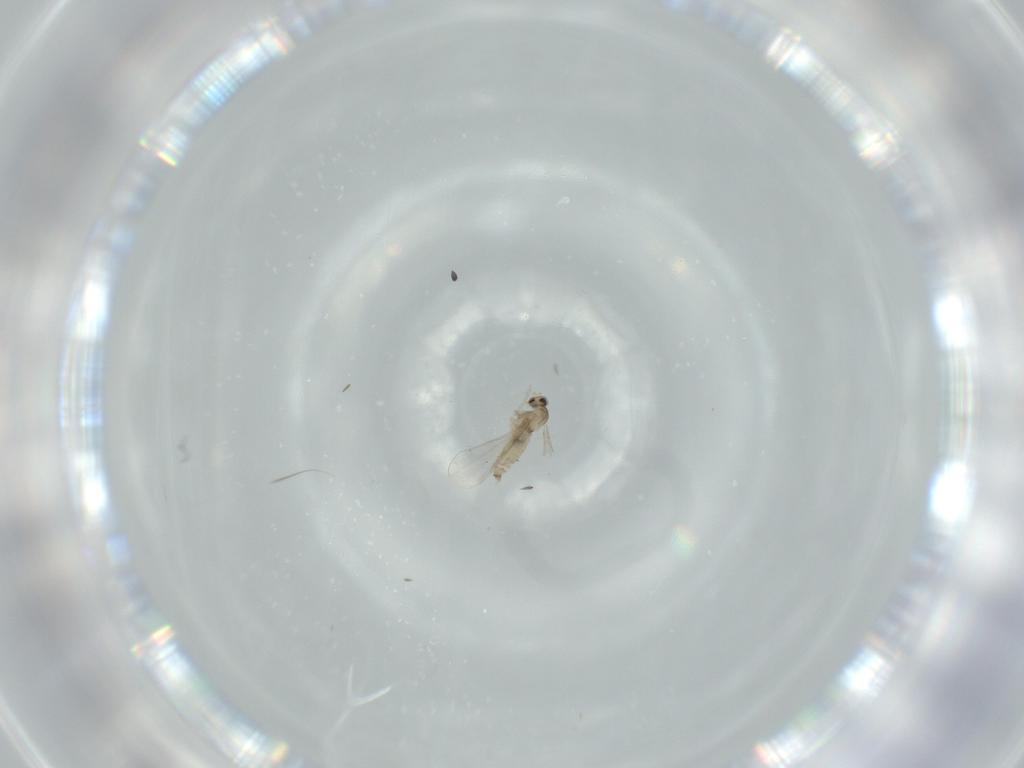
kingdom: Animalia
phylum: Arthropoda
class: Insecta
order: Diptera
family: Cecidomyiidae
